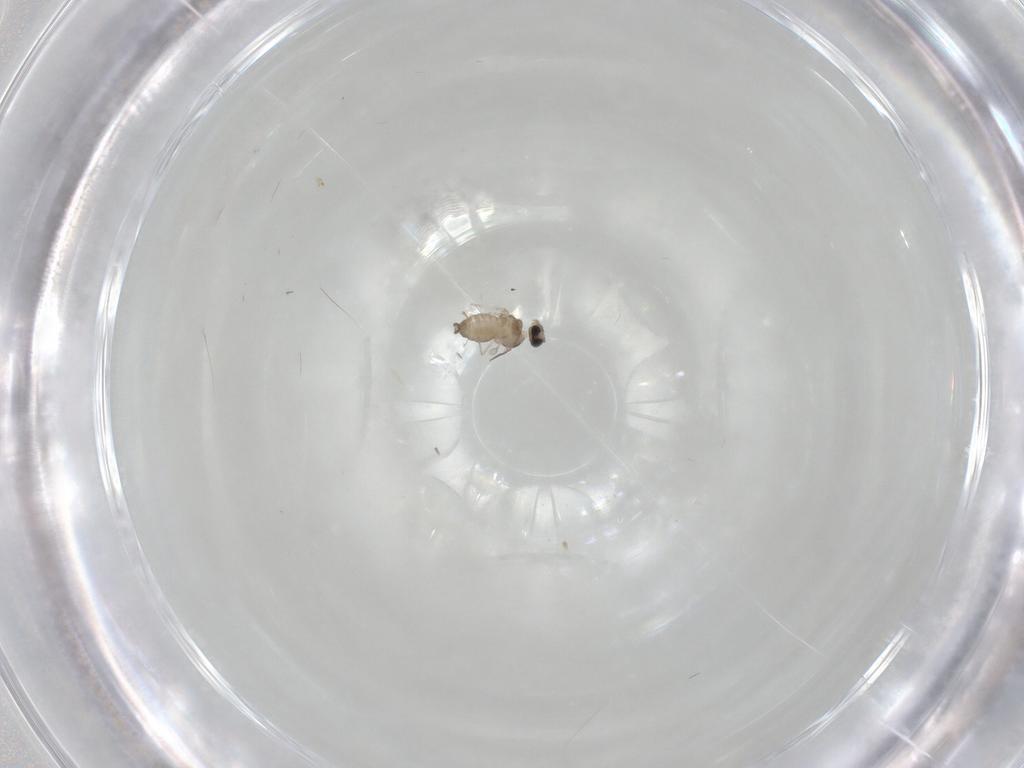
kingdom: Animalia
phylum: Arthropoda
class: Insecta
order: Diptera
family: Cecidomyiidae
